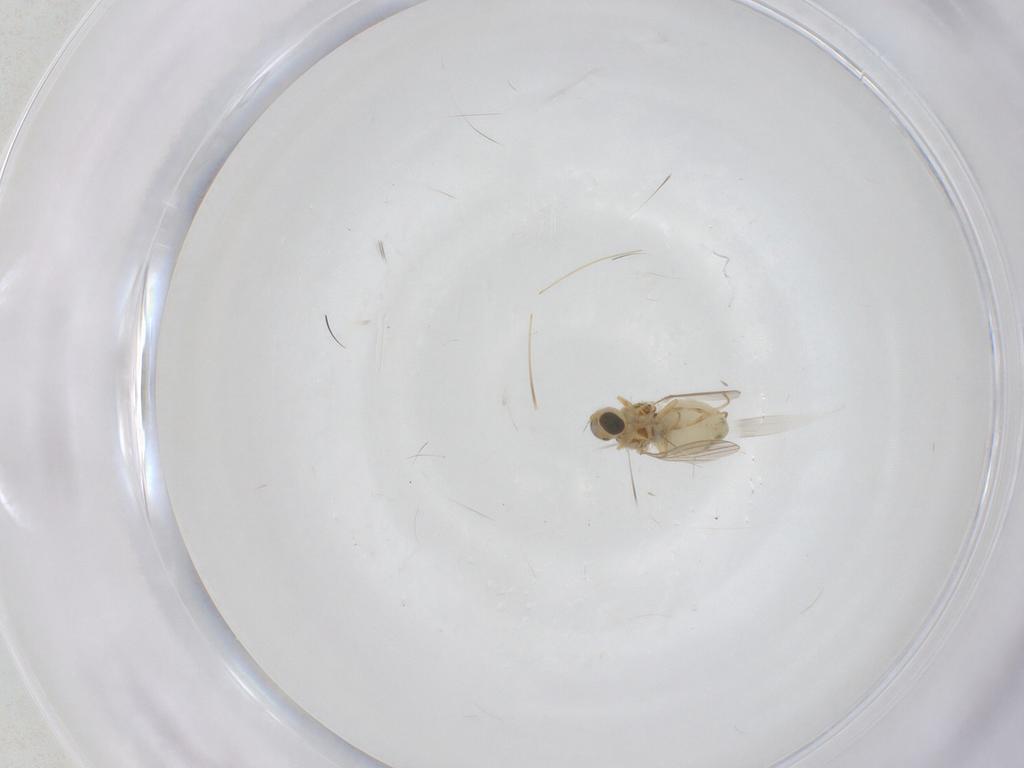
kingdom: Animalia
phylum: Arthropoda
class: Insecta
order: Diptera
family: Chyromyidae
